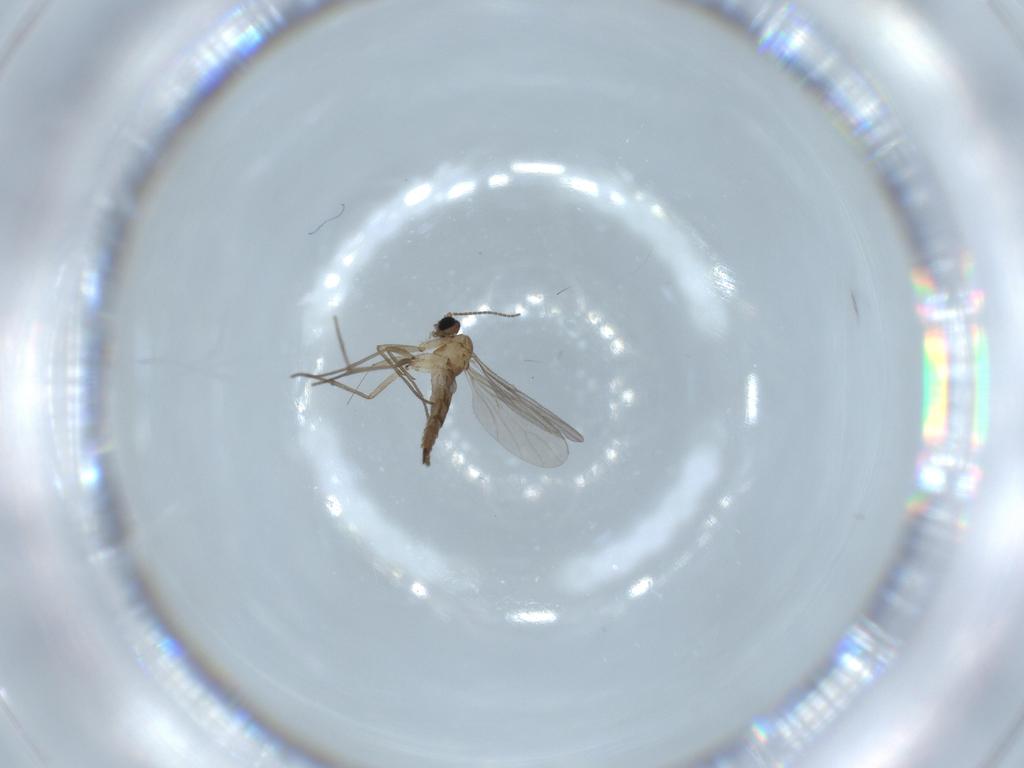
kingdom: Animalia
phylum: Arthropoda
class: Insecta
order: Diptera
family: Sciaridae
